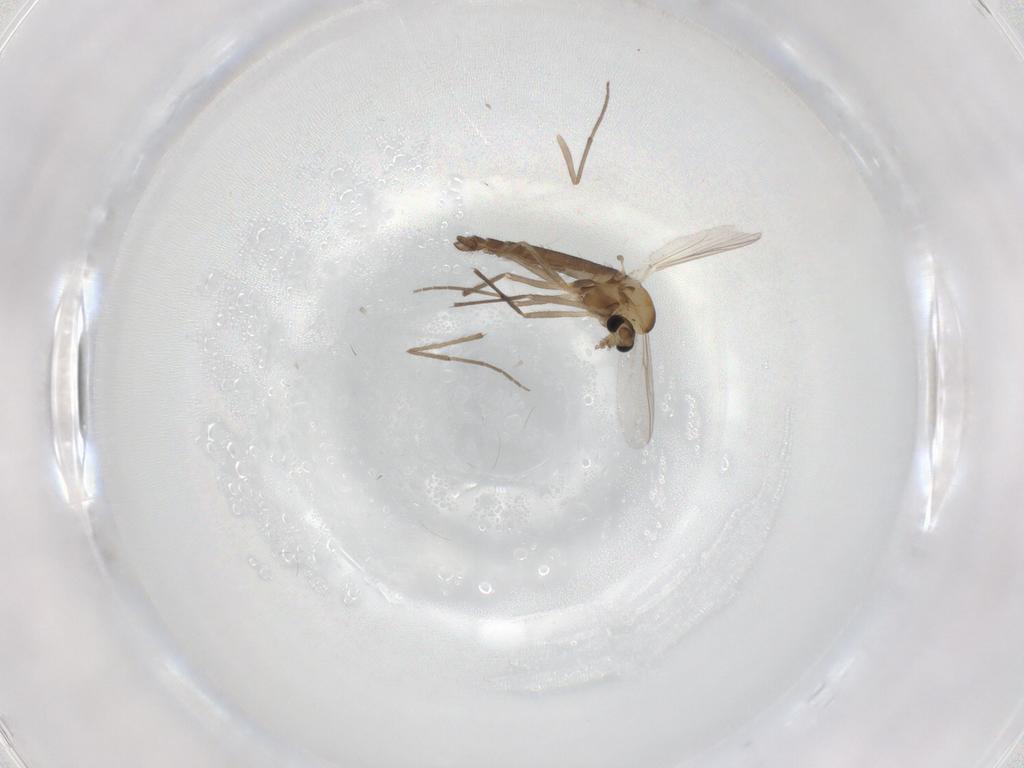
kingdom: Animalia
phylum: Arthropoda
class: Insecta
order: Diptera
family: Chironomidae
